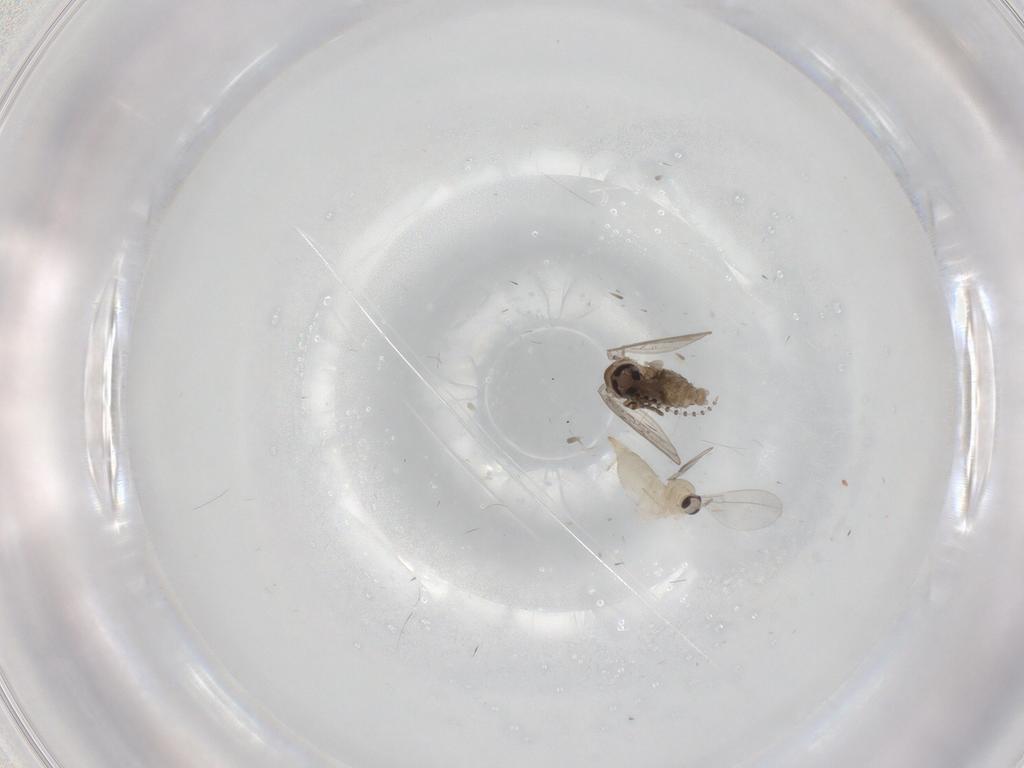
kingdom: Animalia
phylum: Arthropoda
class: Insecta
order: Diptera
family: Cecidomyiidae
